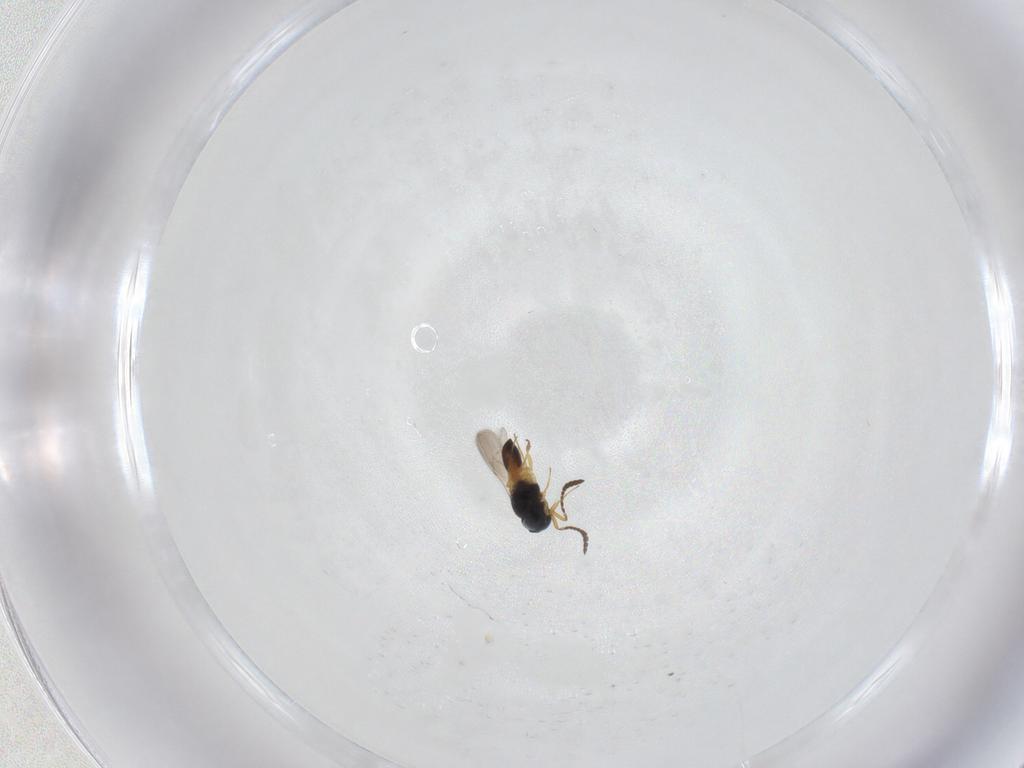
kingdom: Animalia
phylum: Arthropoda
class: Insecta
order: Hymenoptera
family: Scelionidae
